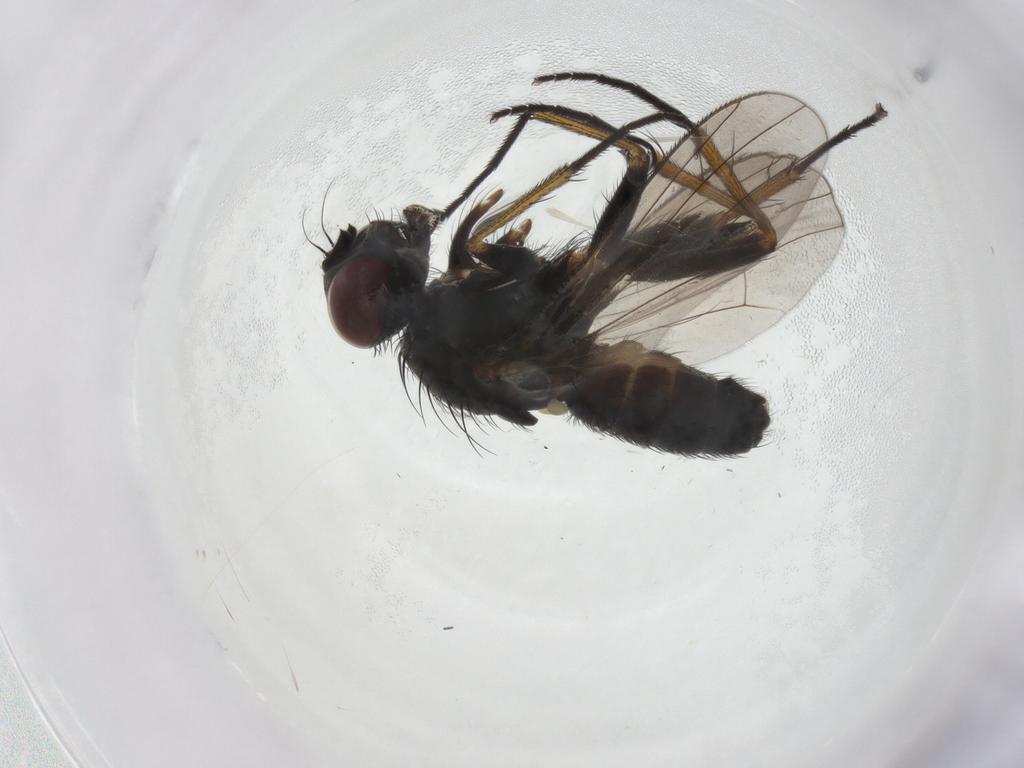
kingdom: Animalia
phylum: Arthropoda
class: Insecta
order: Diptera
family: Muscidae
